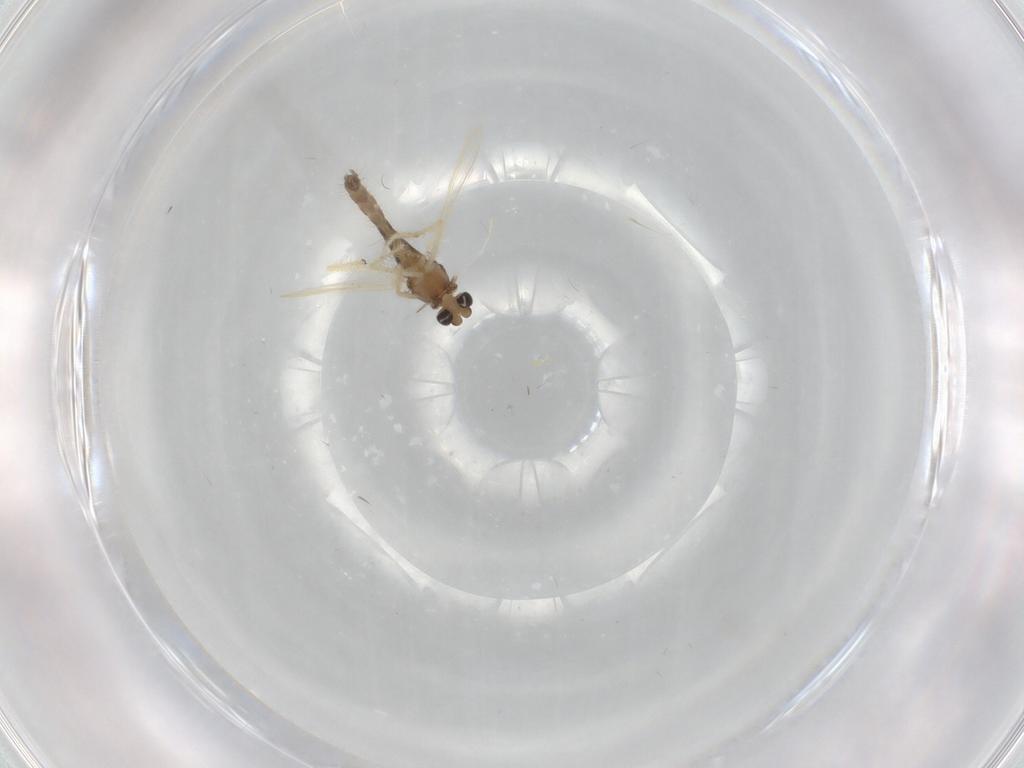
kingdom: Animalia
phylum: Arthropoda
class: Insecta
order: Diptera
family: Chironomidae
